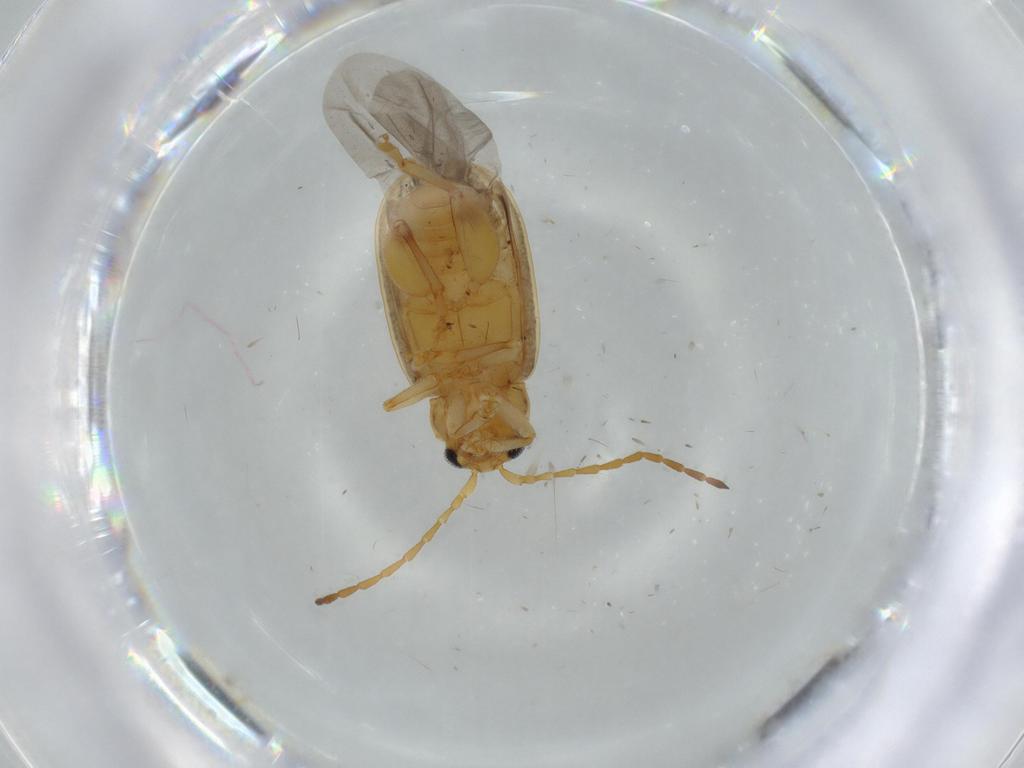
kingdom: Animalia
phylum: Arthropoda
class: Insecta
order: Coleoptera
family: Chrysomelidae
